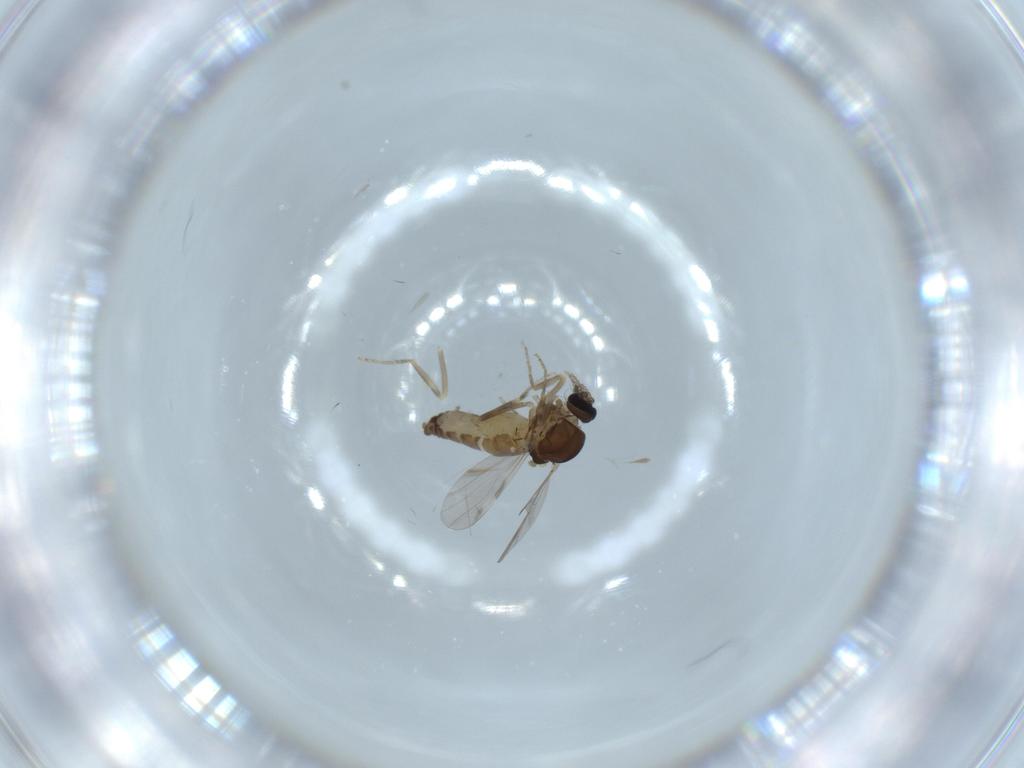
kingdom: Animalia
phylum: Arthropoda
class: Insecta
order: Diptera
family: Ceratopogonidae
